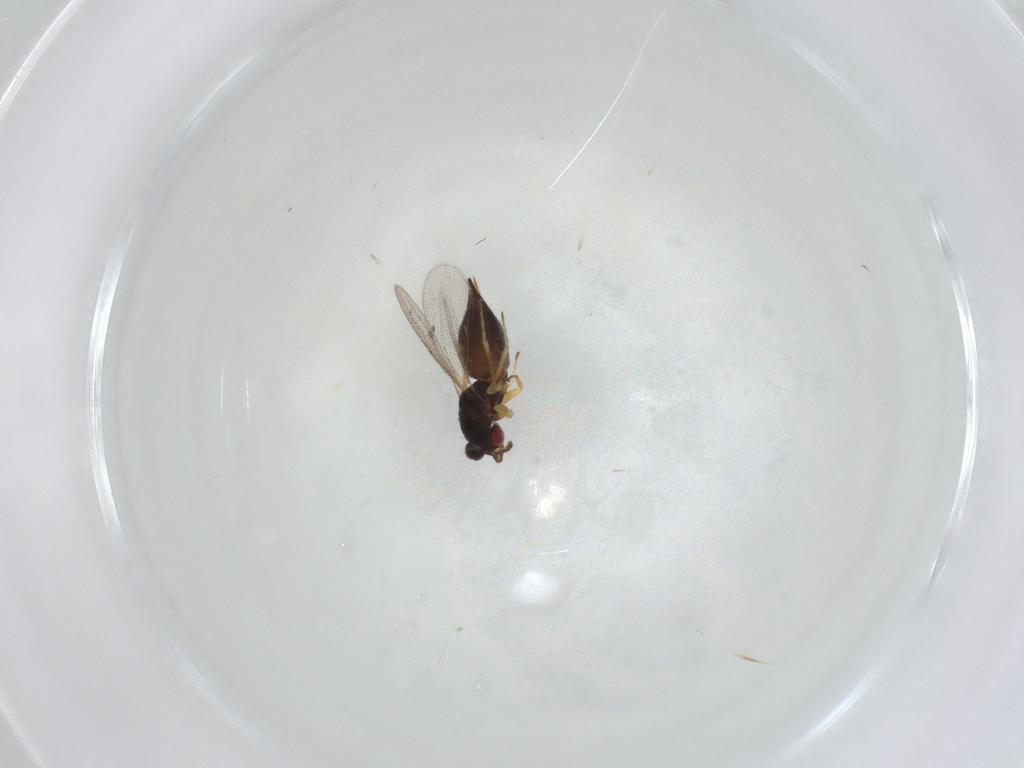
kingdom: Animalia
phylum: Arthropoda
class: Insecta
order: Hymenoptera
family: Eulophidae
